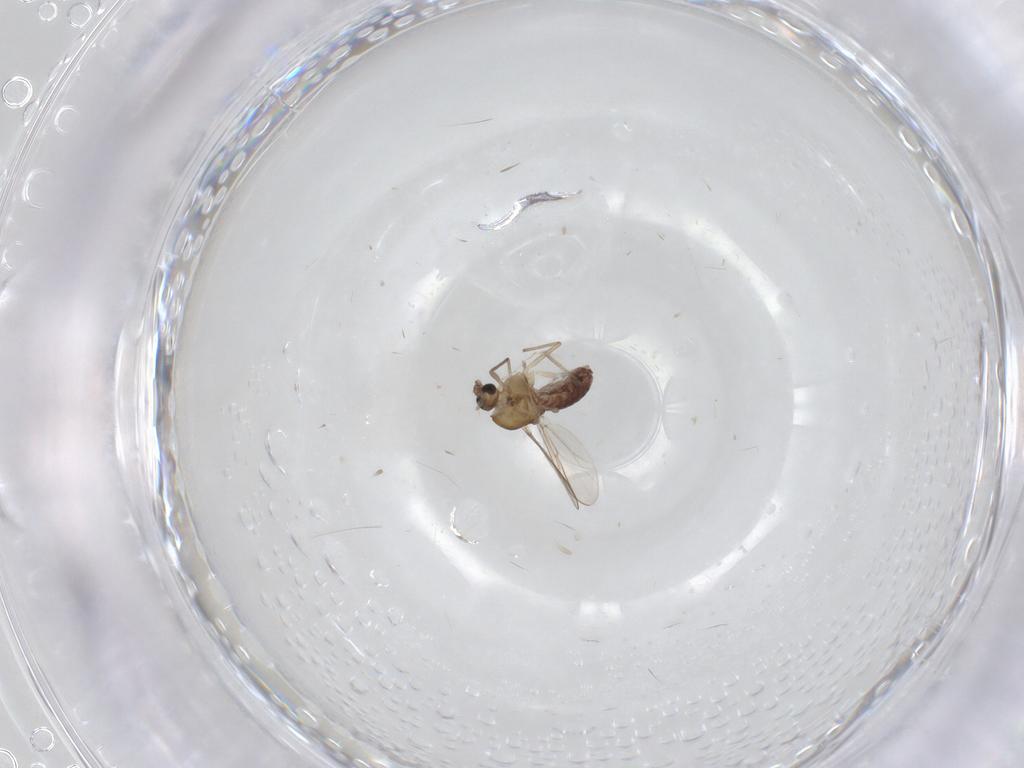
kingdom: Animalia
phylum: Arthropoda
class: Insecta
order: Diptera
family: Chironomidae
